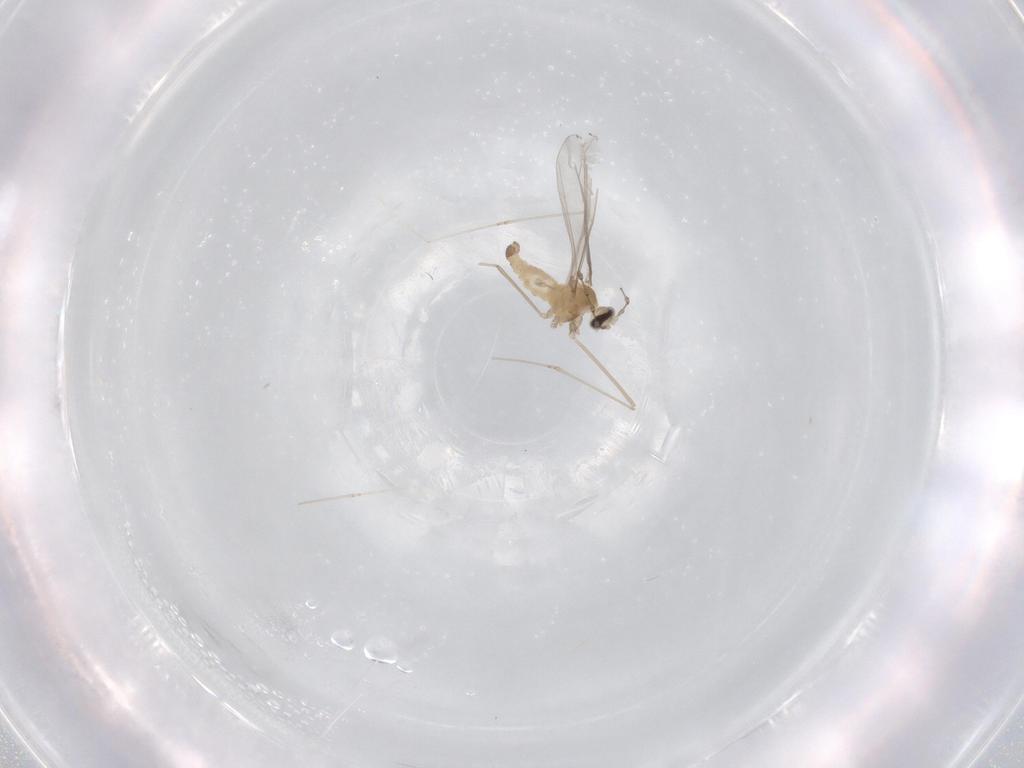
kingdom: Animalia
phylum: Arthropoda
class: Insecta
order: Diptera
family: Cecidomyiidae
